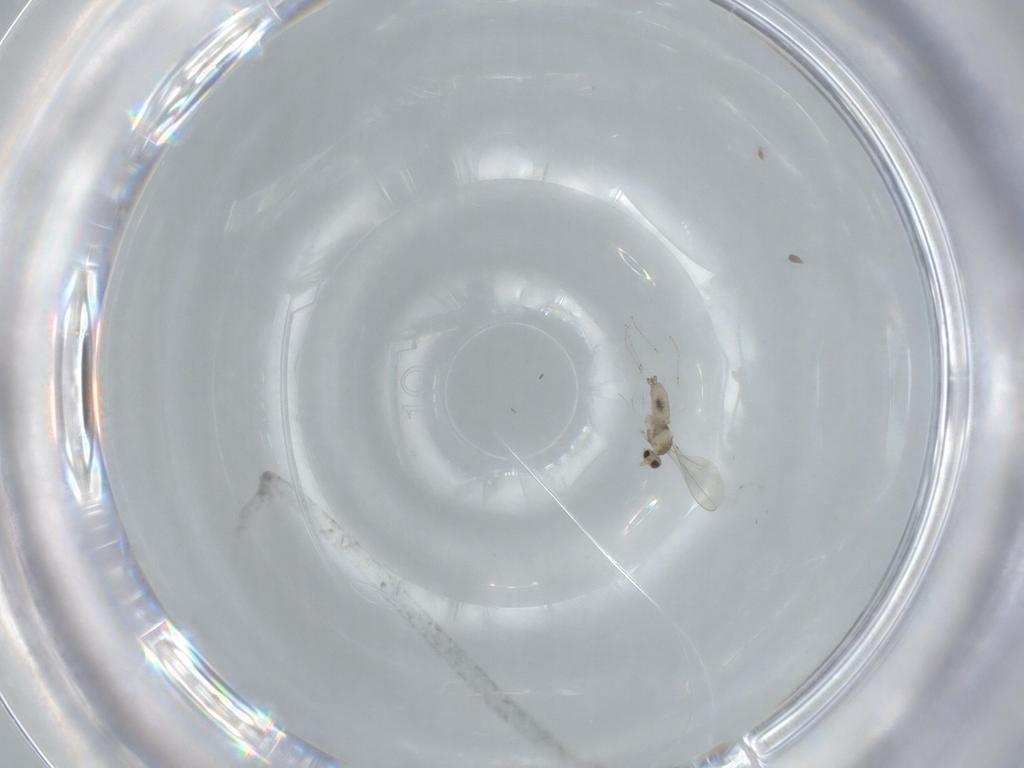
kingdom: Animalia
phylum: Arthropoda
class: Insecta
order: Diptera
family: Cecidomyiidae
